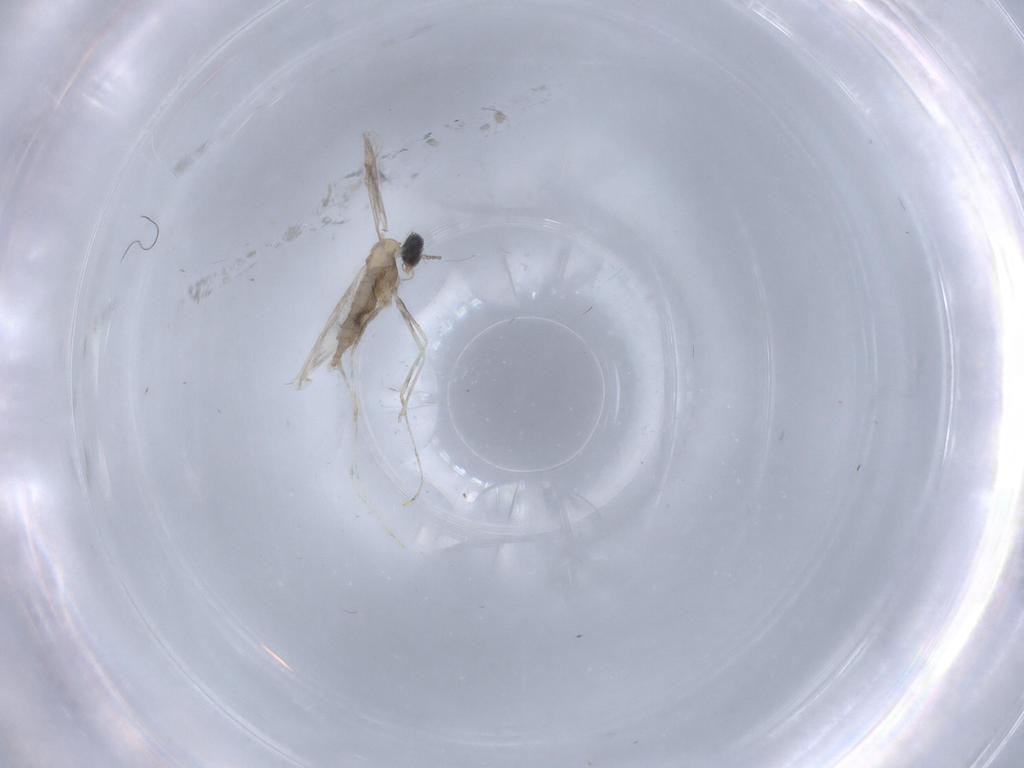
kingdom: Animalia
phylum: Arthropoda
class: Insecta
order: Diptera
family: Cecidomyiidae
